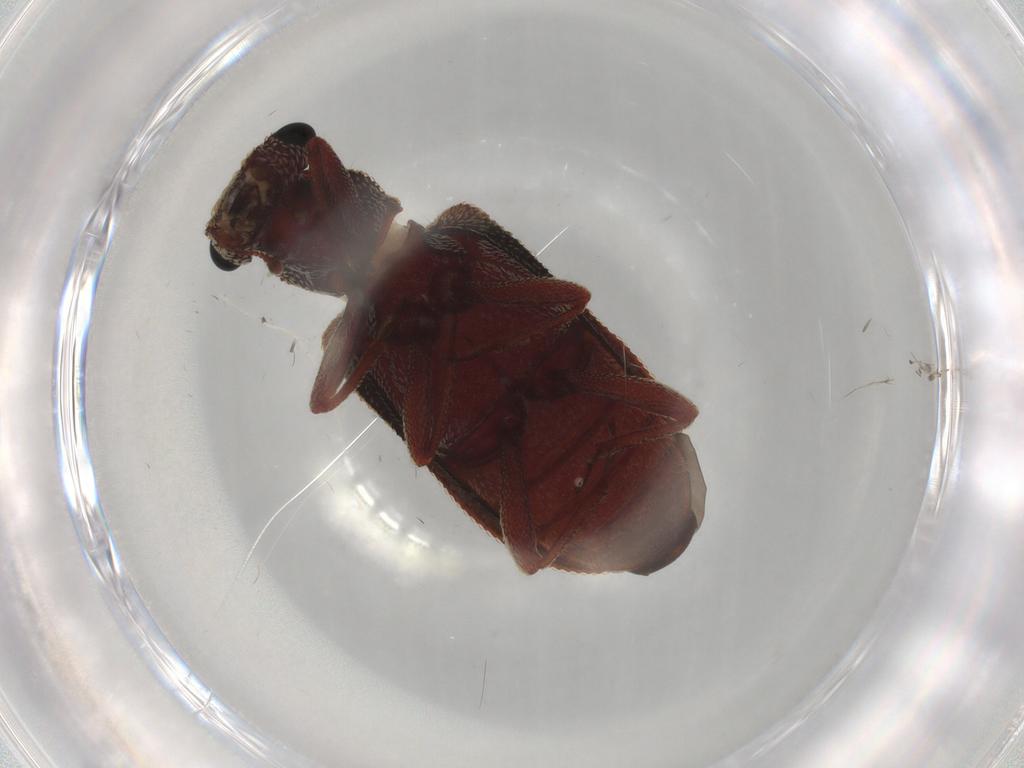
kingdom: Animalia
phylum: Arthropoda
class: Insecta
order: Coleoptera
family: Zopheridae
